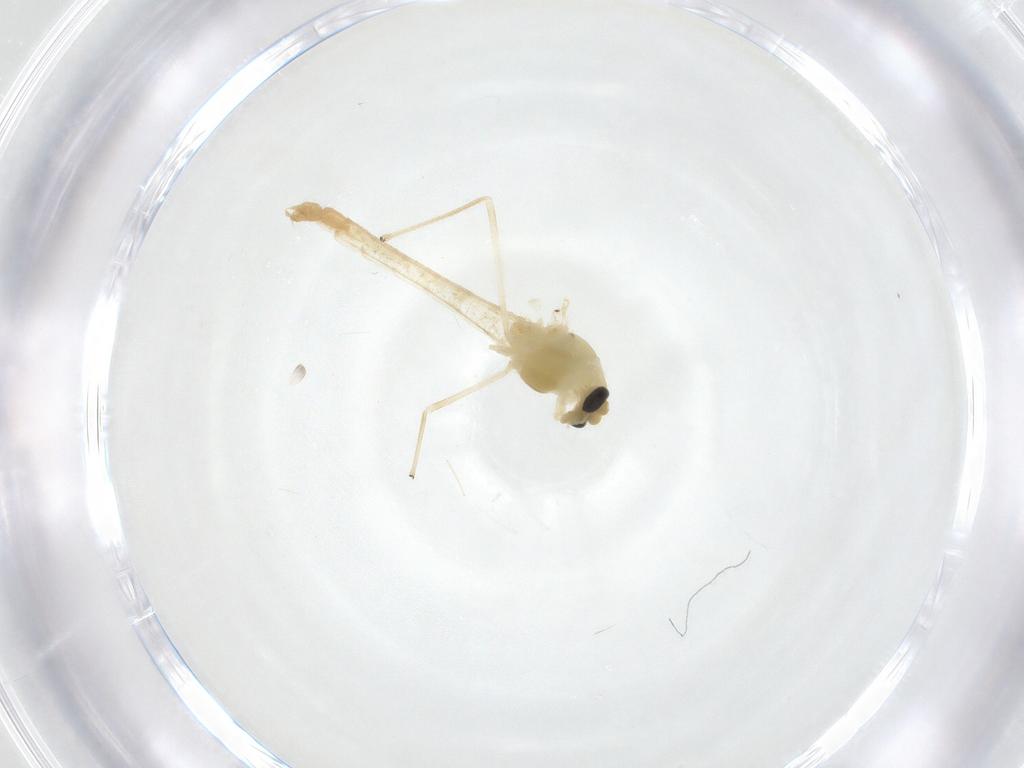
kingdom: Animalia
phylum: Arthropoda
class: Insecta
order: Diptera
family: Chironomidae
